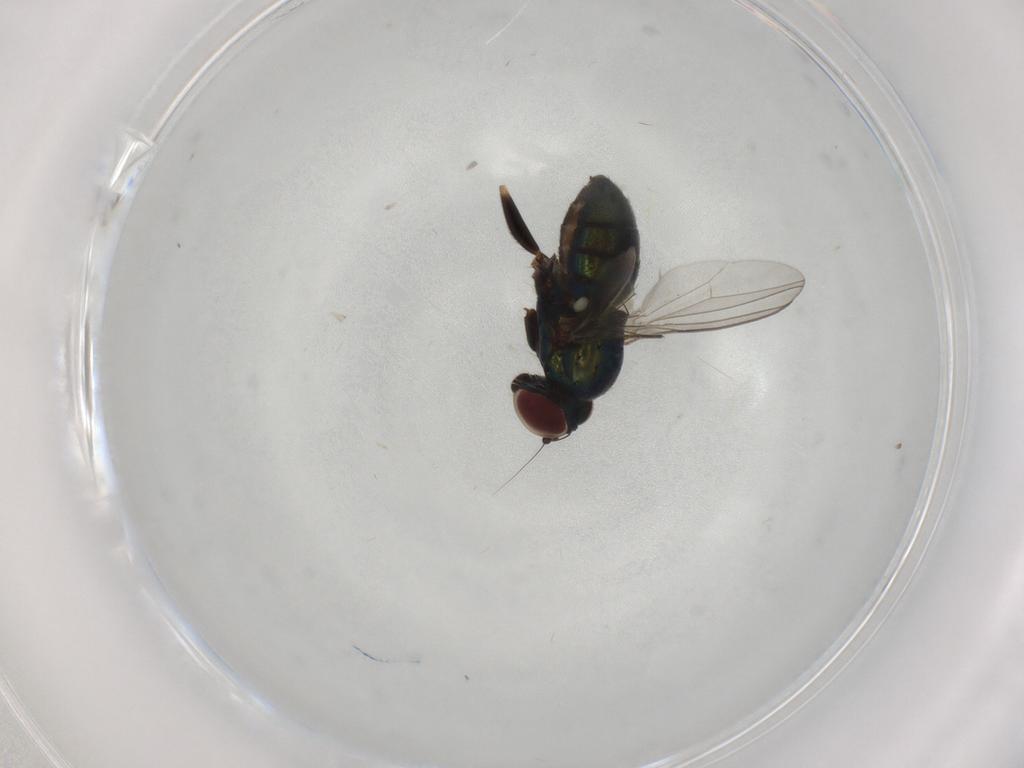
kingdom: Animalia
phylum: Arthropoda
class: Insecta
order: Diptera
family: Dolichopodidae
